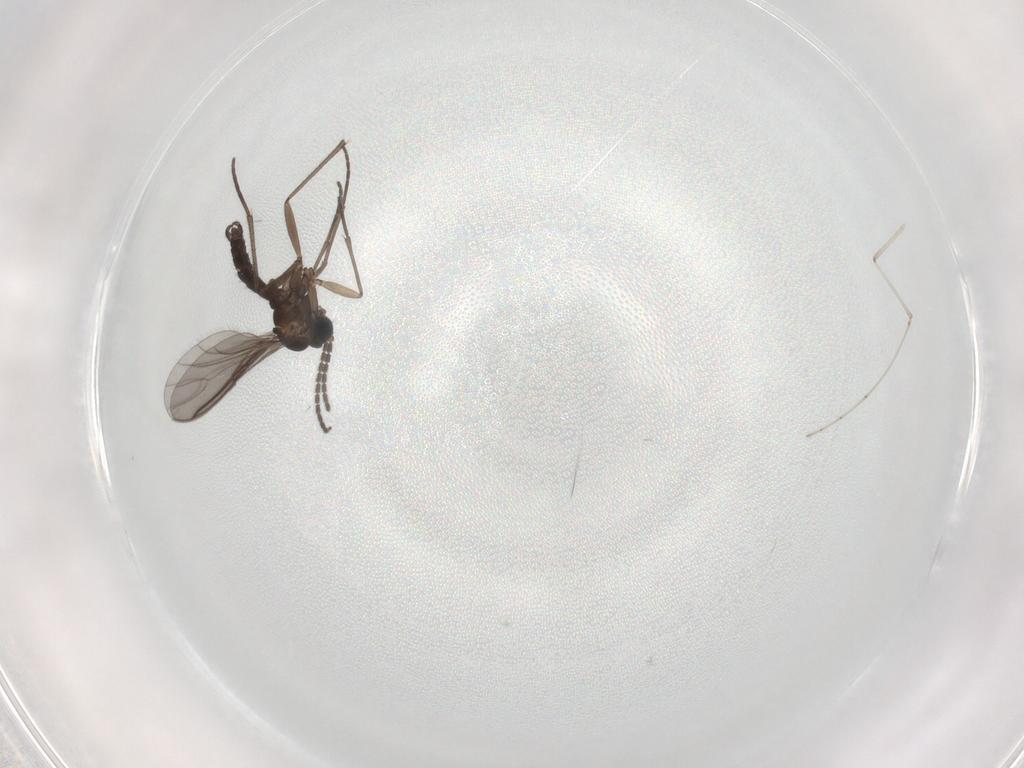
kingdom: Animalia
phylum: Arthropoda
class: Insecta
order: Diptera
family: Sciaridae
